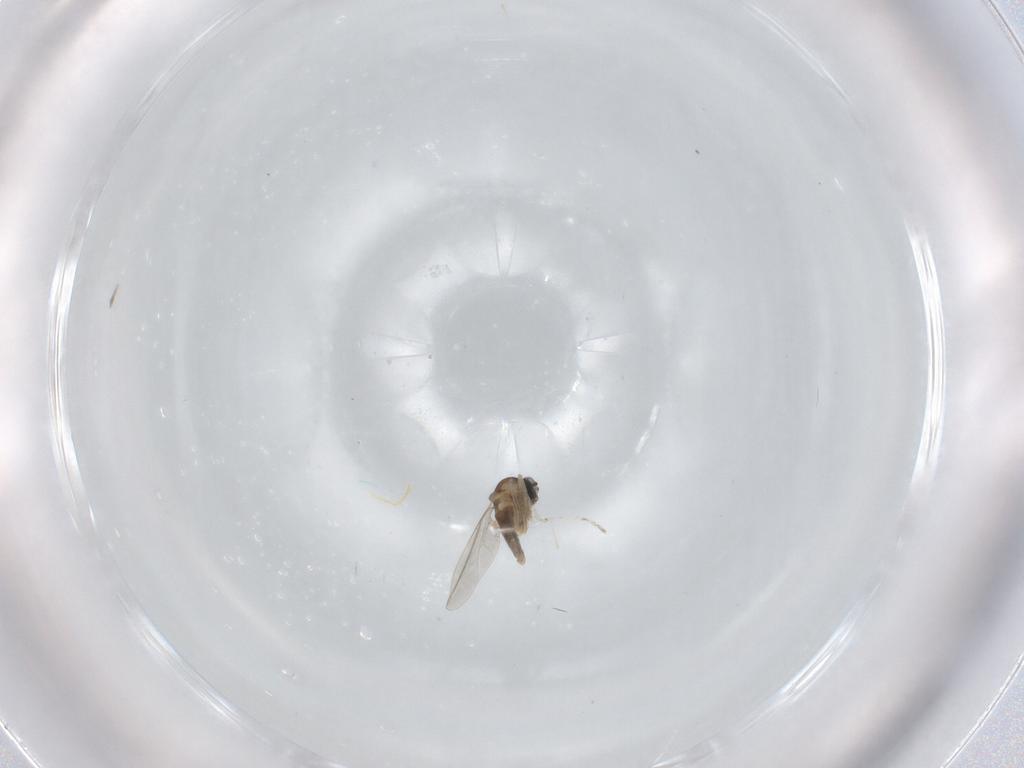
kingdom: Animalia
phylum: Arthropoda
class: Insecta
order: Diptera
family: Cecidomyiidae
